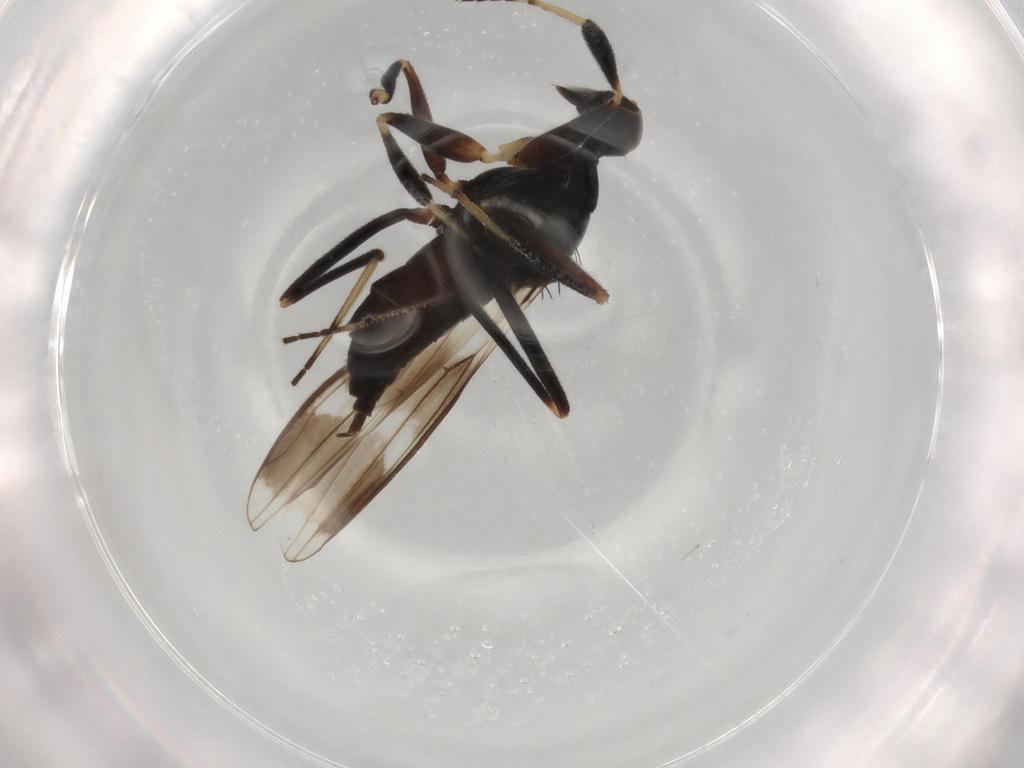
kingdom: Animalia
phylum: Arthropoda
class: Insecta
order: Diptera
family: Hybotidae
